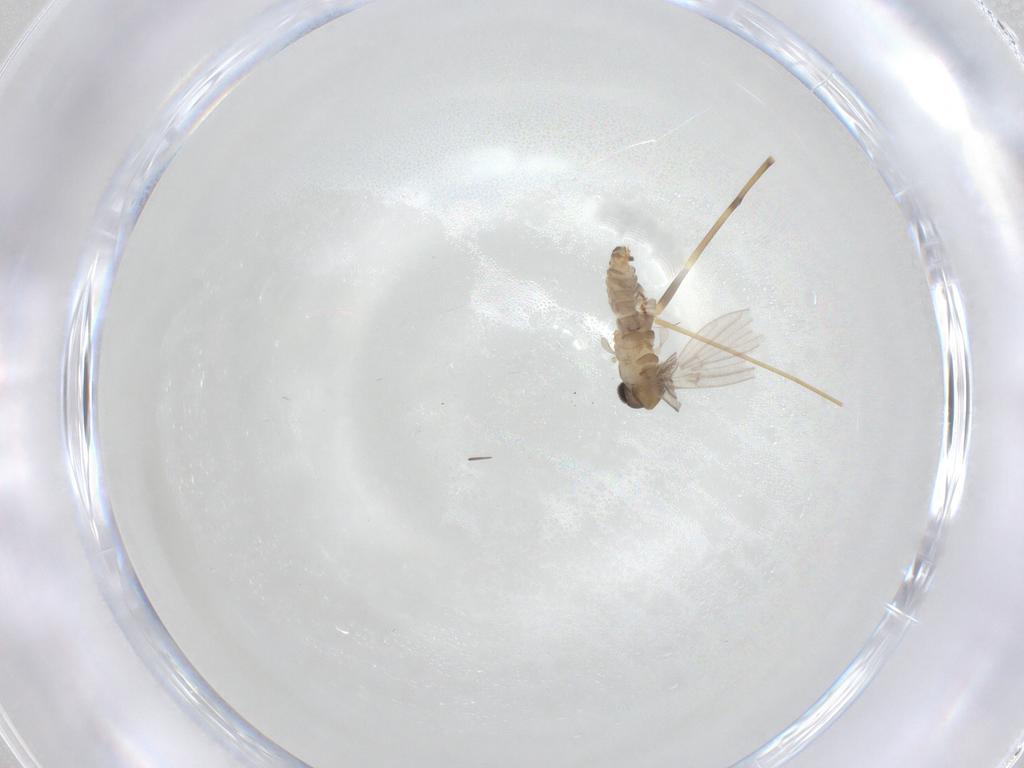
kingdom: Animalia
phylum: Arthropoda
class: Insecta
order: Diptera
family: Limoniidae
